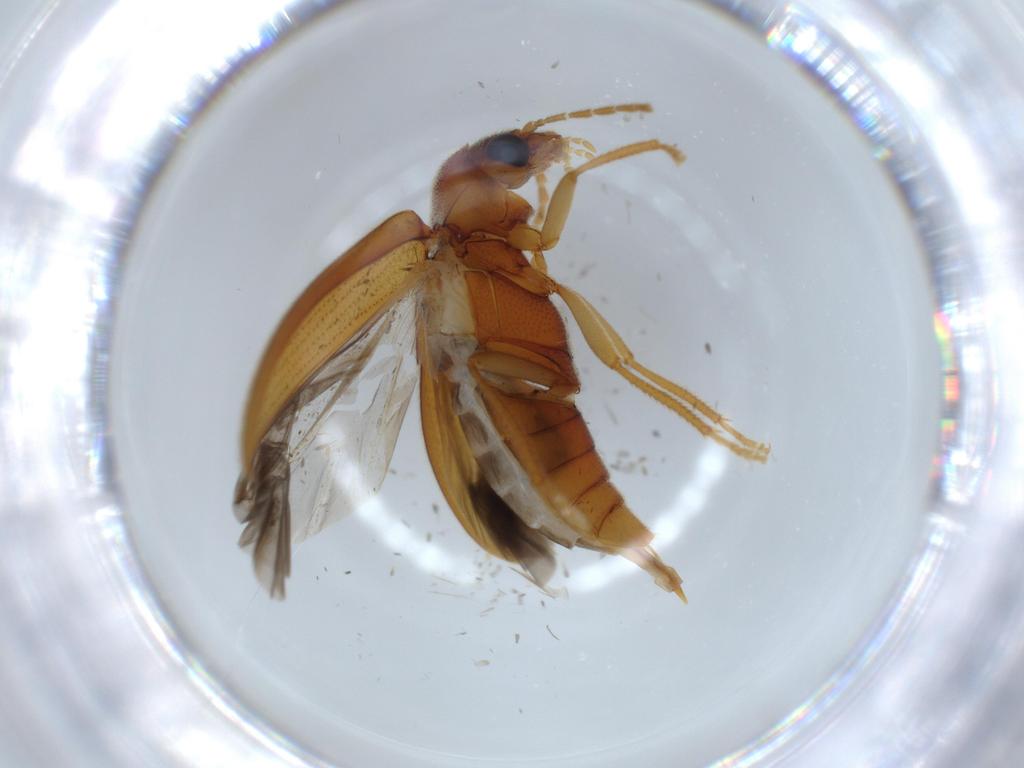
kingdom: Animalia
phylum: Arthropoda
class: Insecta
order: Coleoptera
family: Ptilodactylidae
